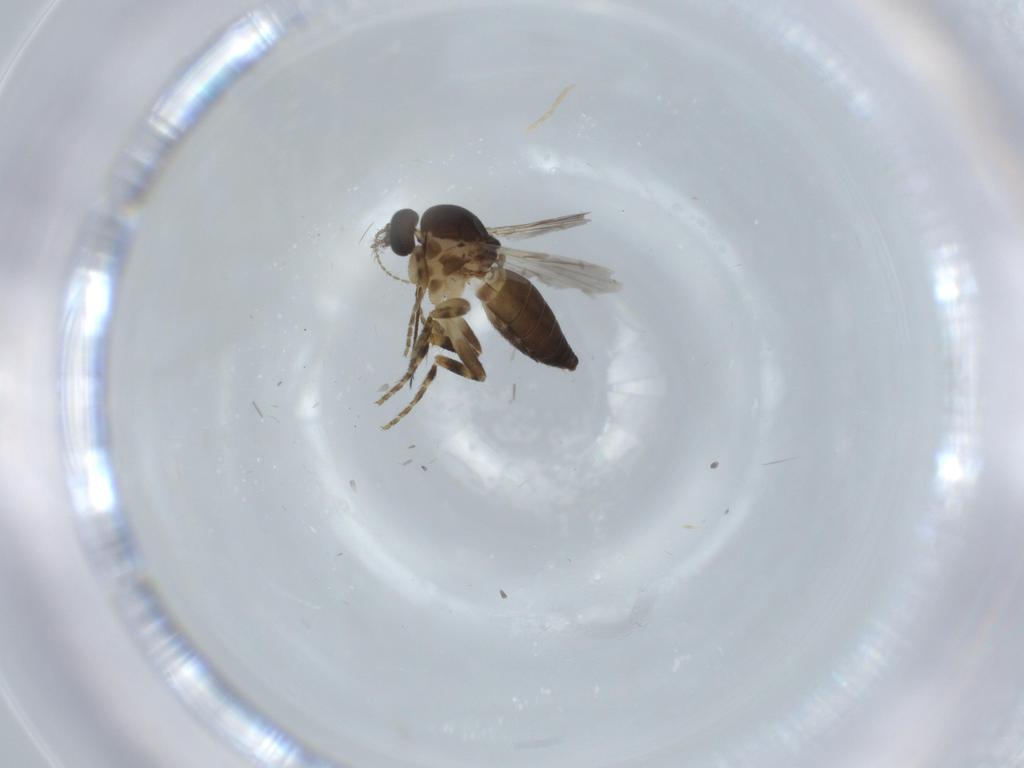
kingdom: Animalia
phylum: Arthropoda
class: Insecta
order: Diptera
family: Ceratopogonidae
